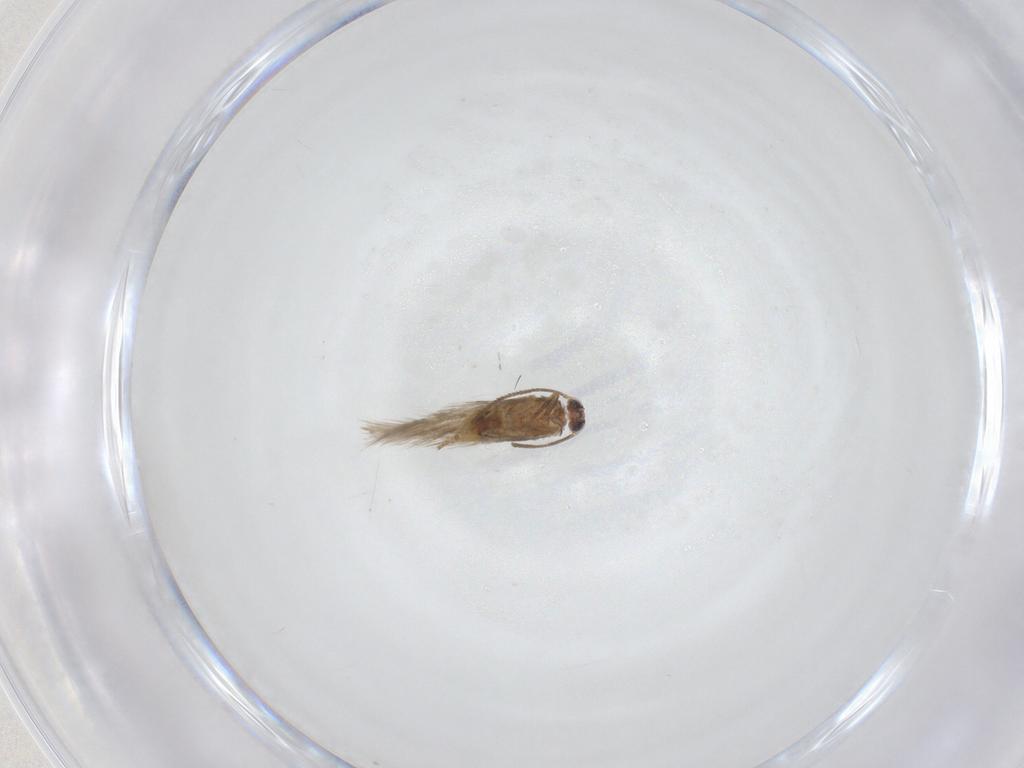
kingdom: Animalia
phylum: Arthropoda
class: Insecta
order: Lepidoptera
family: Nepticulidae
